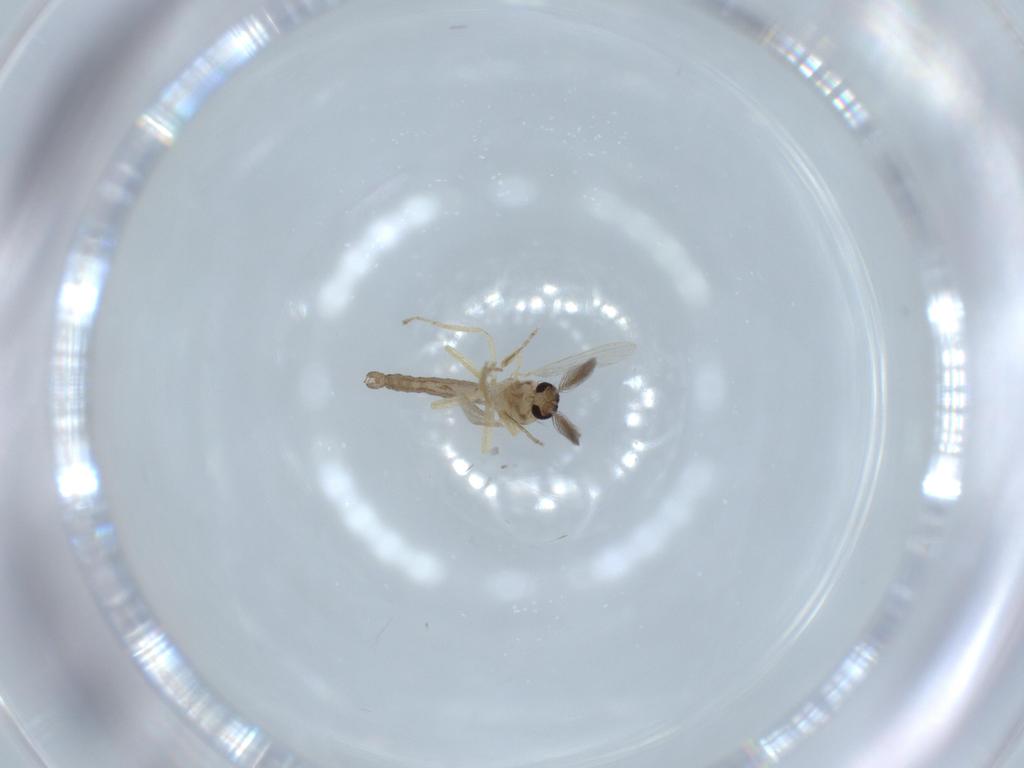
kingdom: Animalia
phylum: Arthropoda
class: Insecta
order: Diptera
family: Ceratopogonidae
